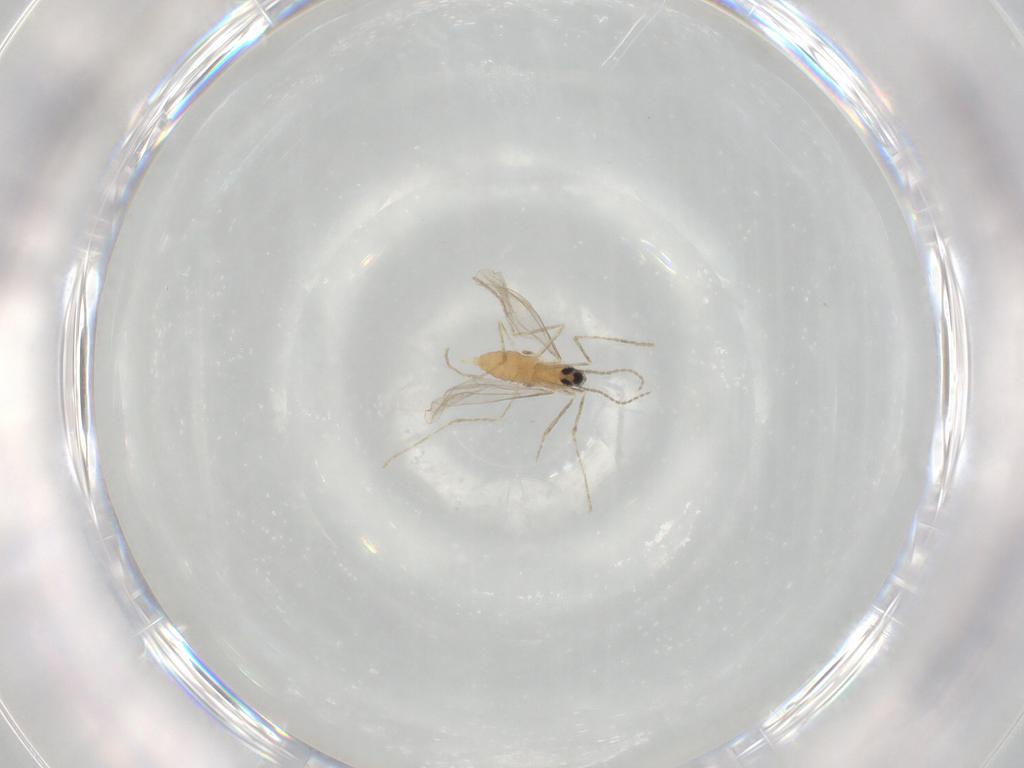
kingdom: Animalia
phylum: Arthropoda
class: Insecta
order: Diptera
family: Cecidomyiidae
